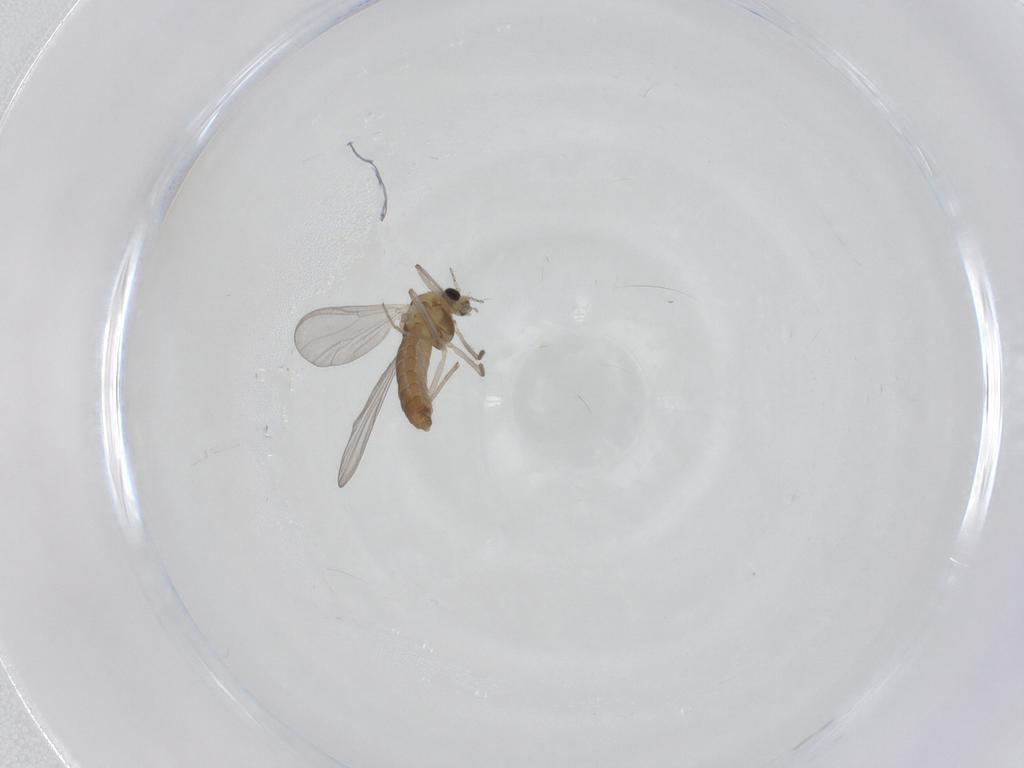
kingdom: Animalia
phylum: Arthropoda
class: Insecta
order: Diptera
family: Chironomidae
